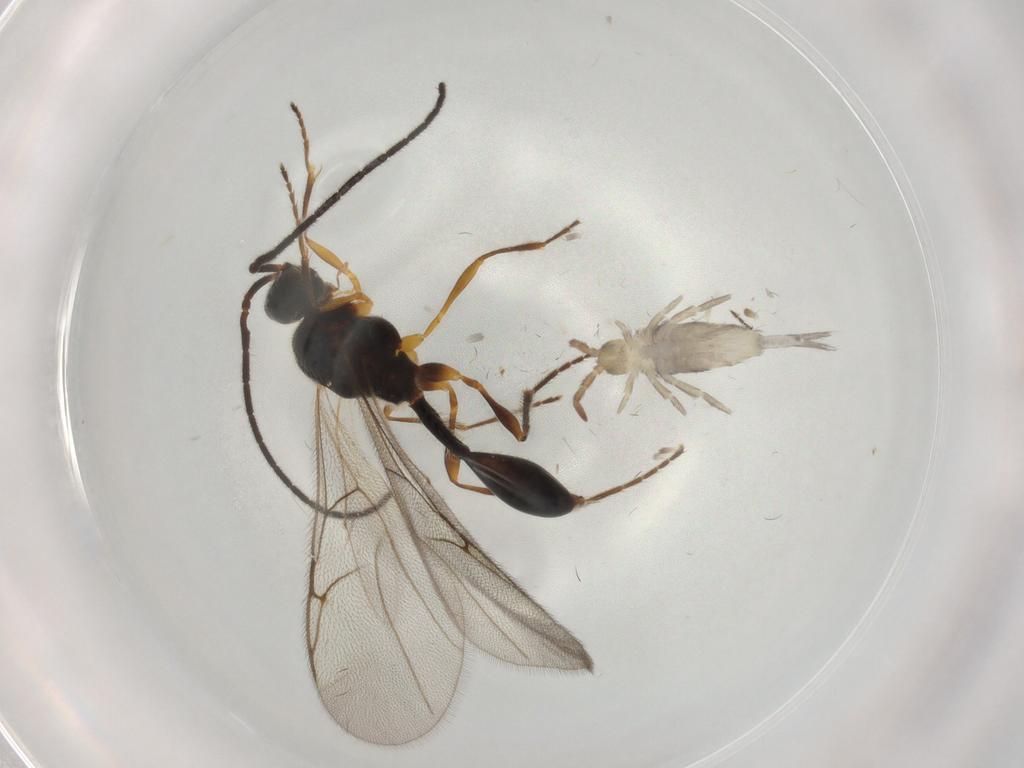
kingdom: Animalia
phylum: Arthropoda
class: Collembola
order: Entomobryomorpha
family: Entomobryidae
